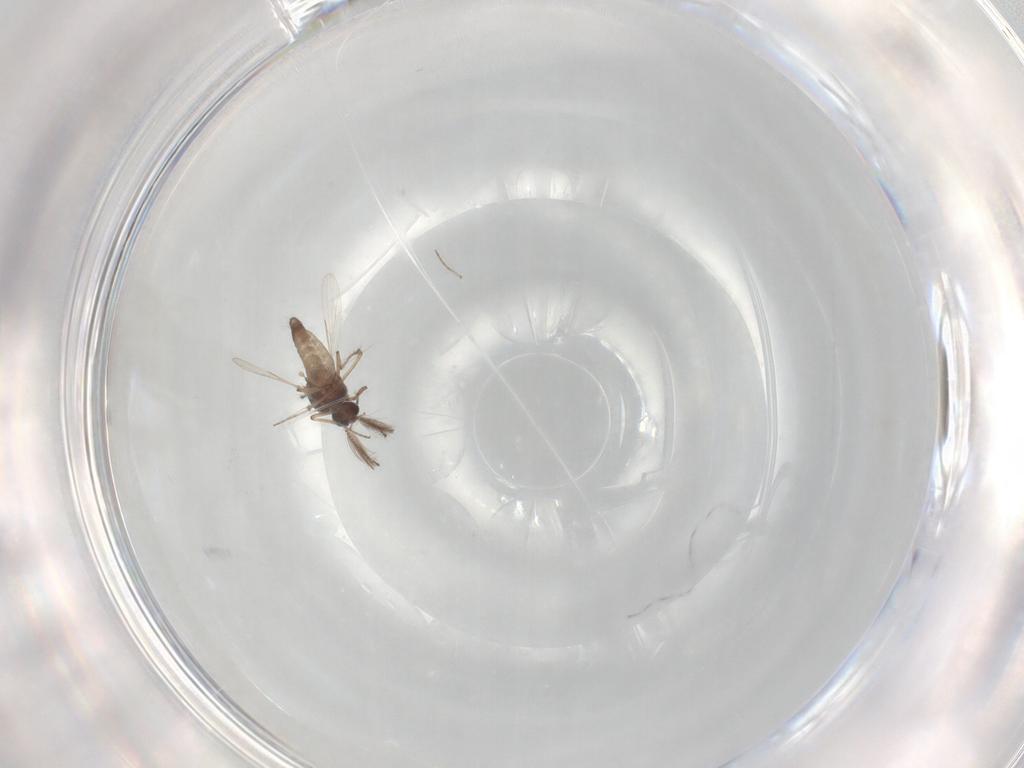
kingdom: Animalia
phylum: Arthropoda
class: Insecta
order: Diptera
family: Ceratopogonidae
